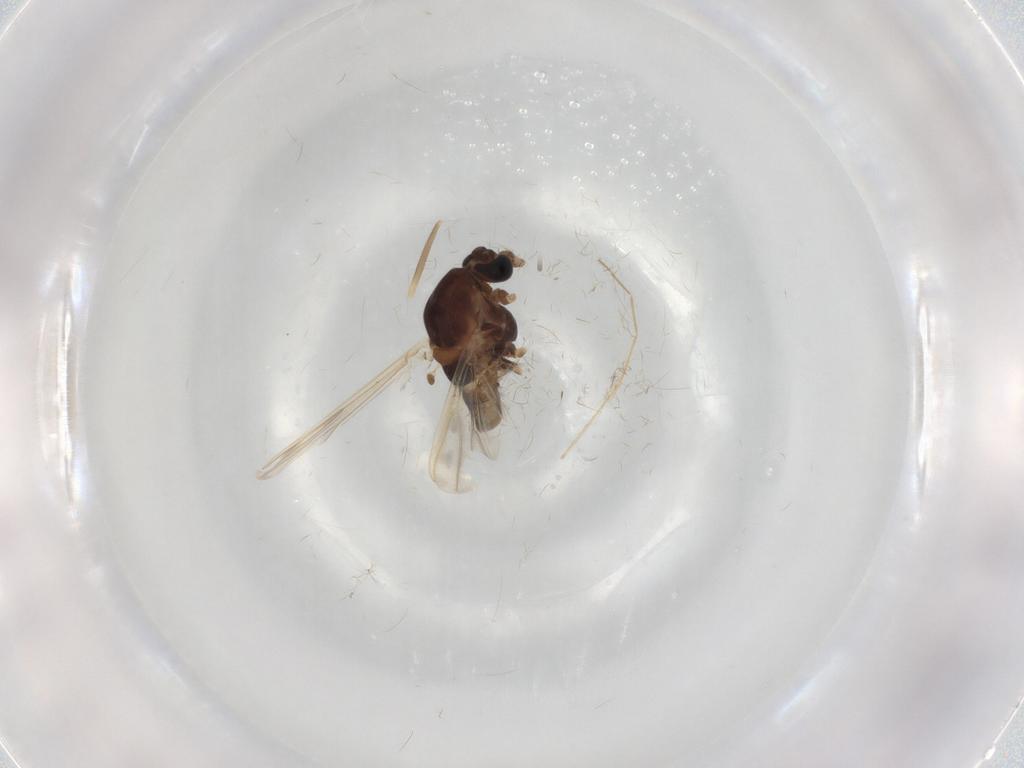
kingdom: Animalia
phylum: Arthropoda
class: Insecta
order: Diptera
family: Chironomidae
